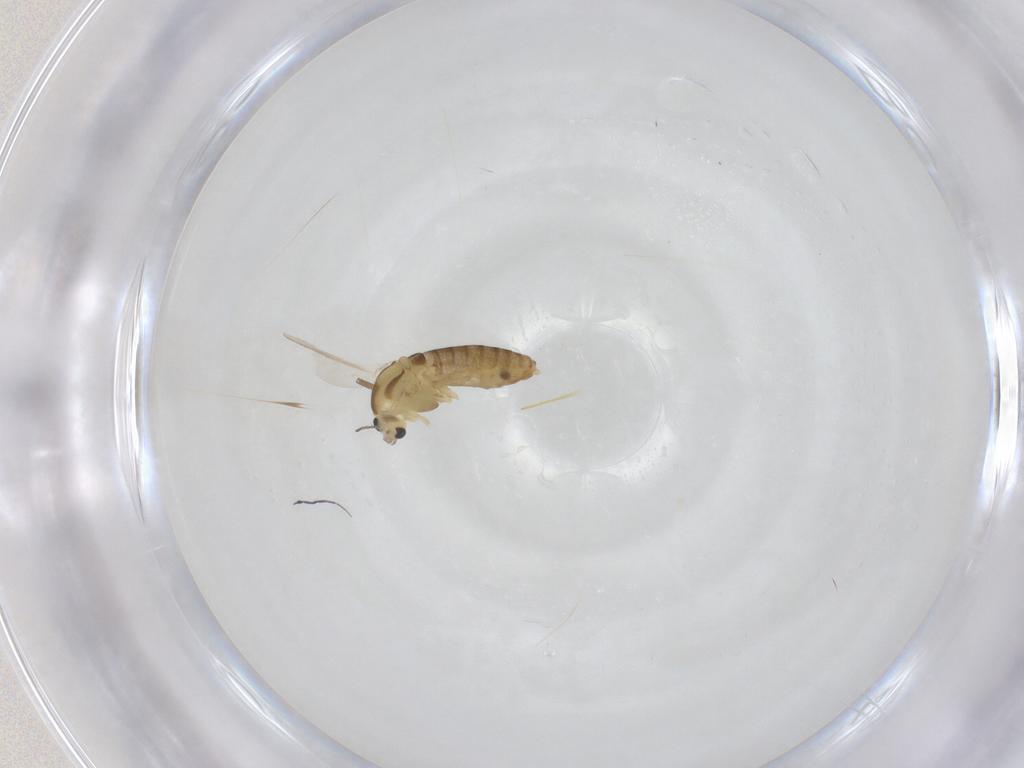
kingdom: Animalia
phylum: Arthropoda
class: Insecta
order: Diptera
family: Chironomidae
